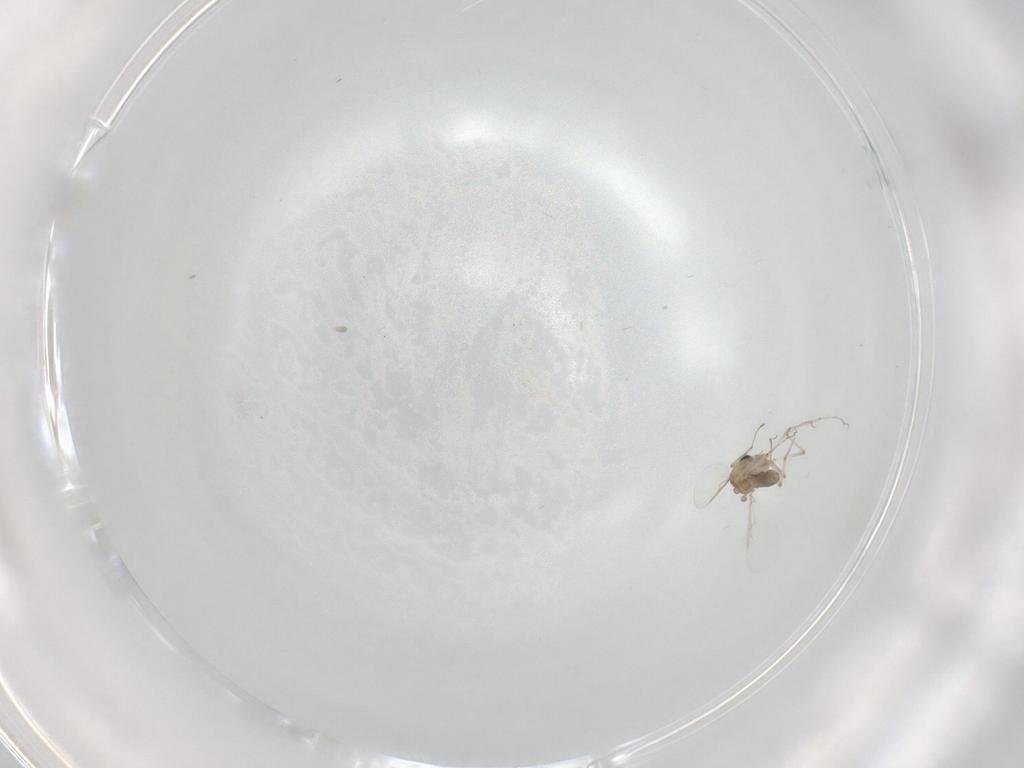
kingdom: Animalia
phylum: Arthropoda
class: Insecta
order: Diptera
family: Ceratopogonidae
